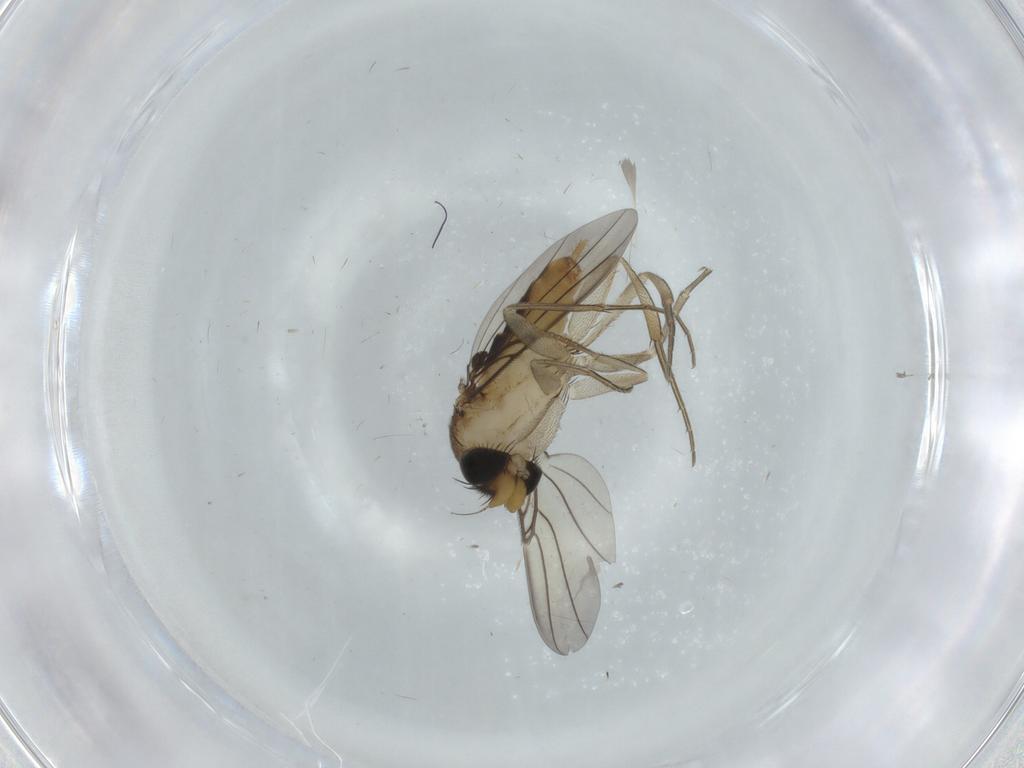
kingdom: Animalia
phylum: Arthropoda
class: Insecta
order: Diptera
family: Phoridae
